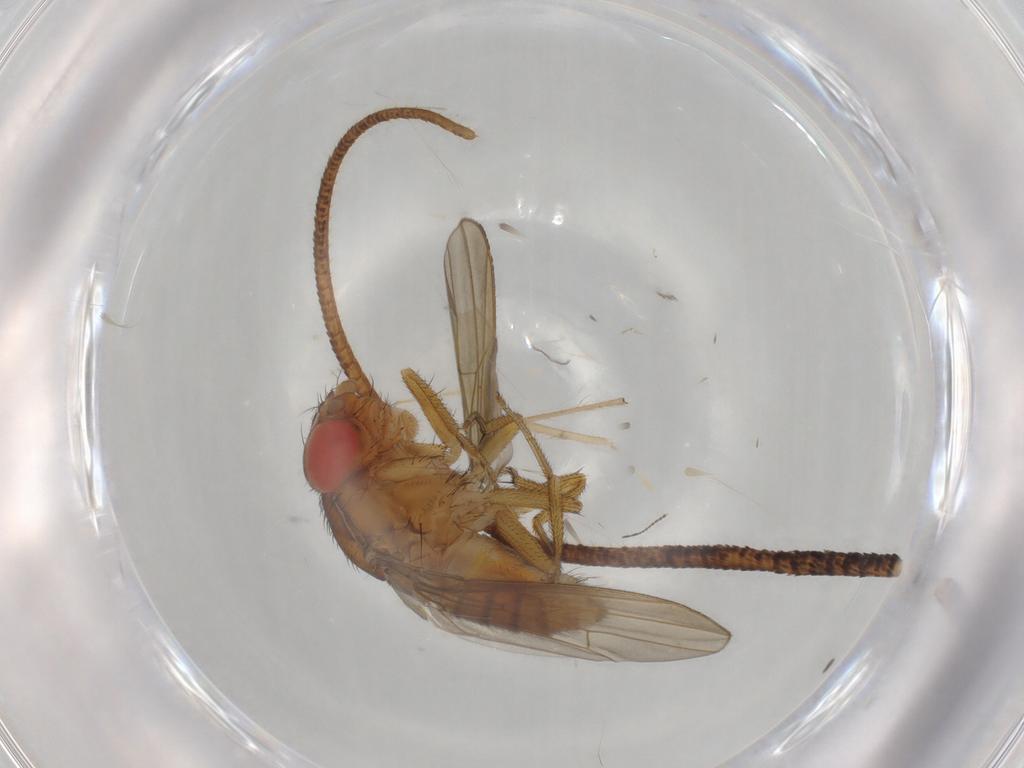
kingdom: Animalia
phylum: Arthropoda
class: Insecta
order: Diptera
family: Drosophilidae
